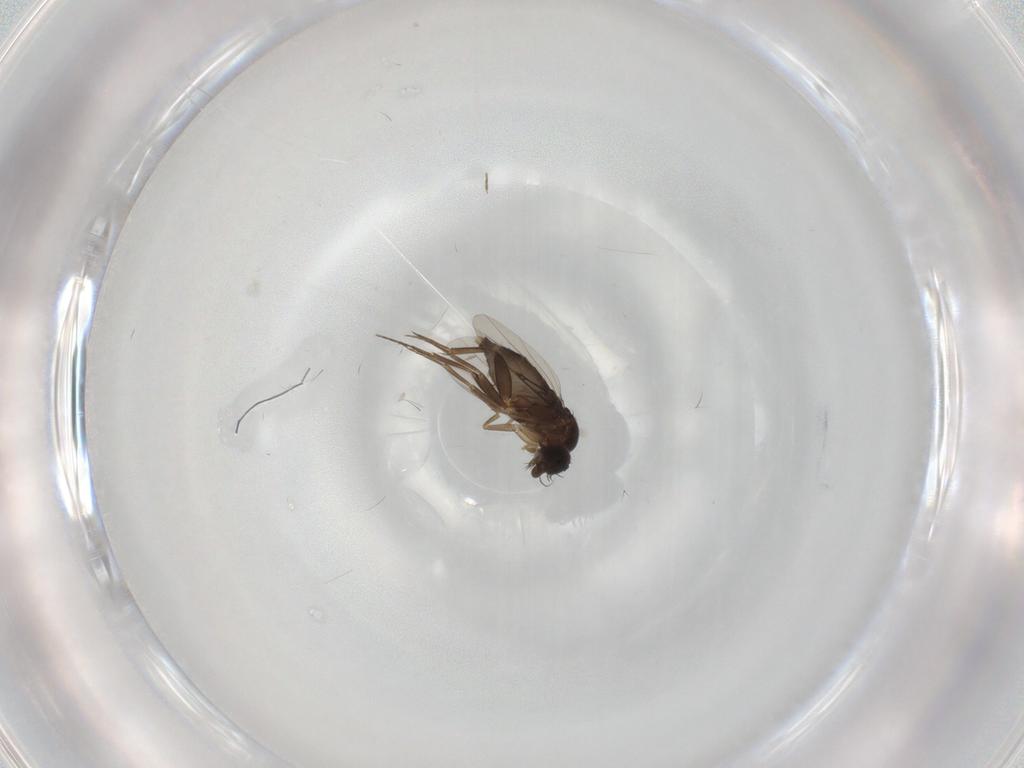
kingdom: Animalia
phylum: Arthropoda
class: Insecta
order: Diptera
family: Phoridae
